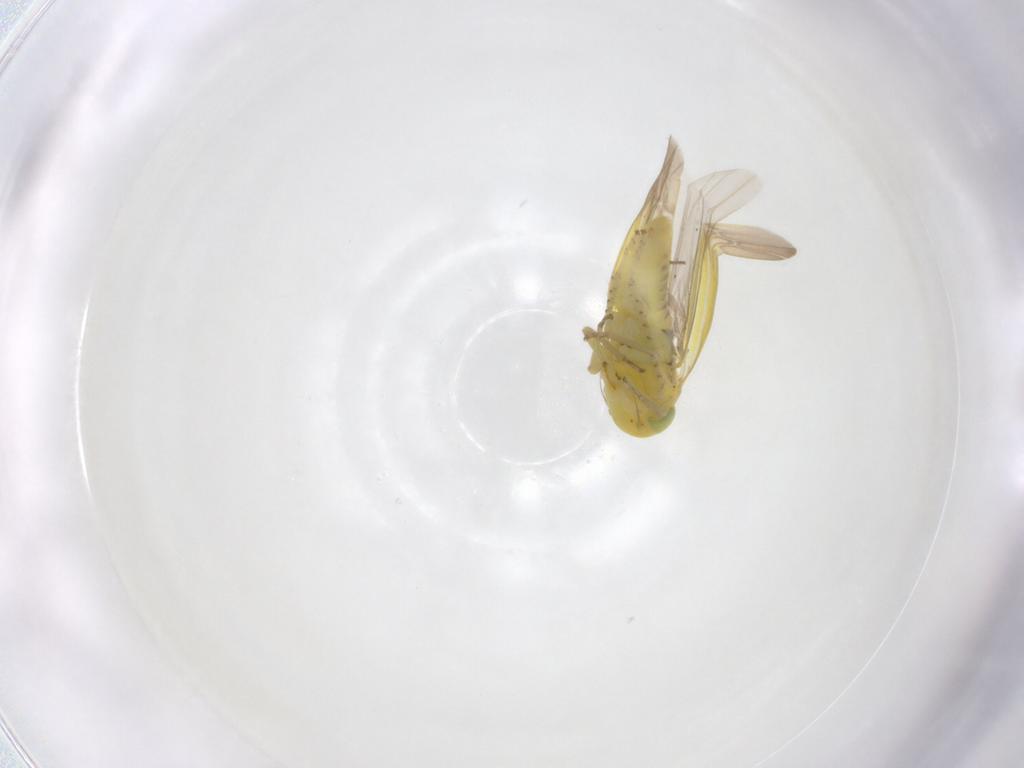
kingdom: Animalia
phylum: Arthropoda
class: Insecta
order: Hemiptera
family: Cicadellidae
